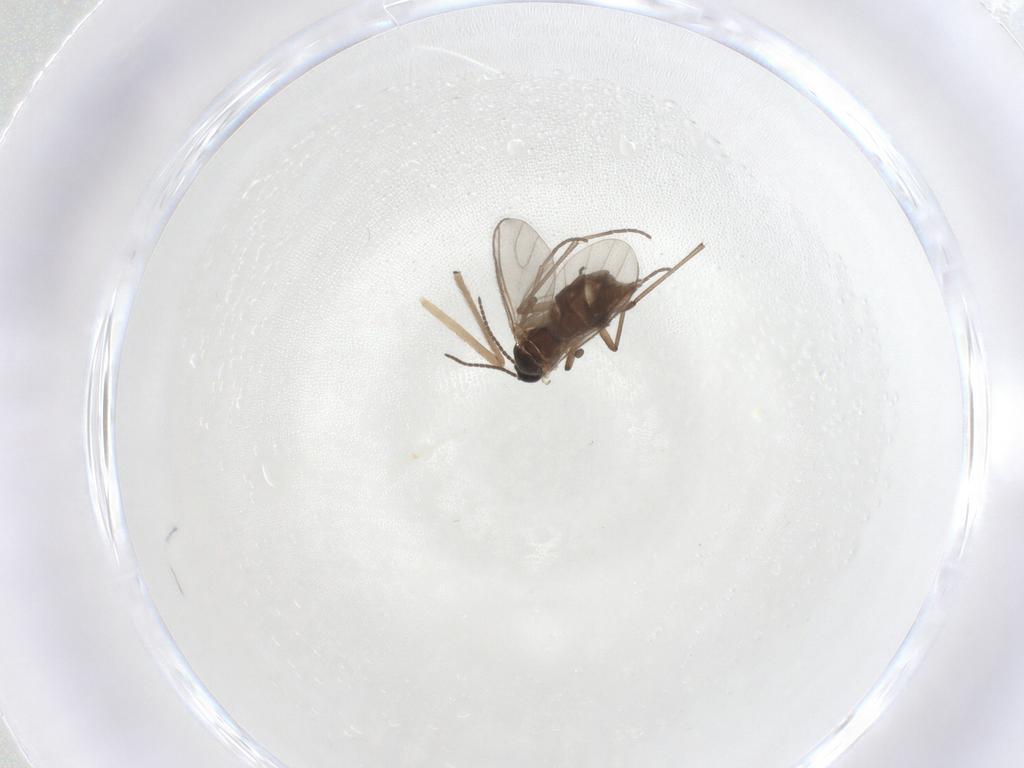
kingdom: Animalia
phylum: Arthropoda
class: Insecta
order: Diptera
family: Sciaridae
